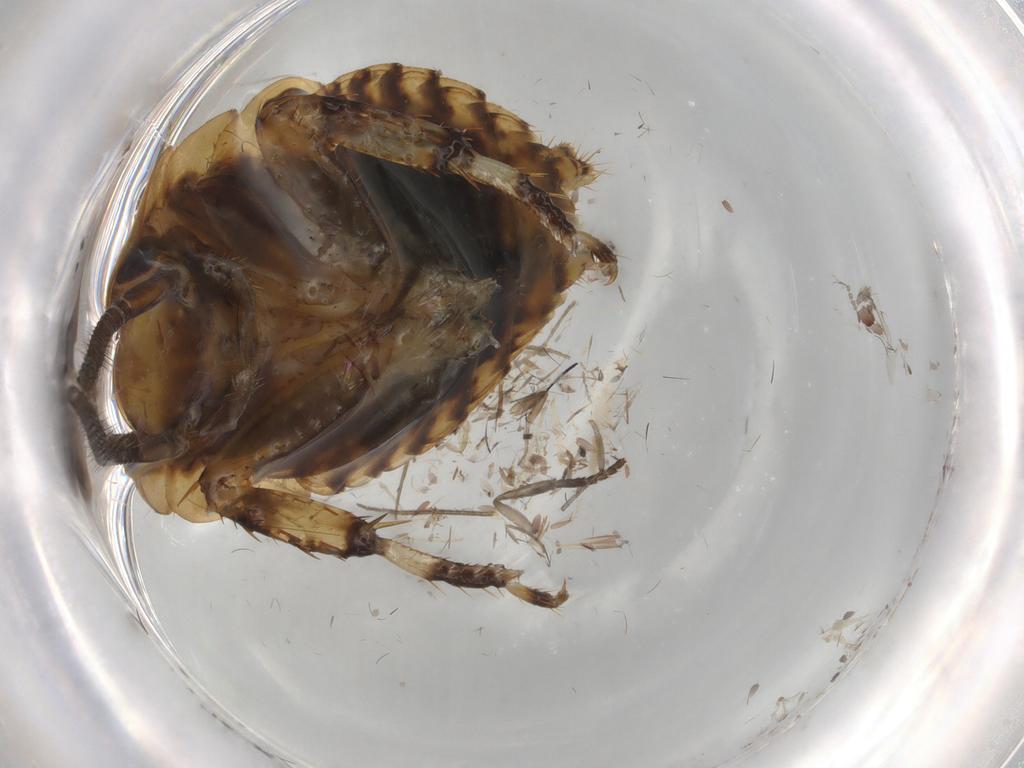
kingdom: Animalia
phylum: Arthropoda
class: Insecta
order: Blattodea
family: Blattidae
